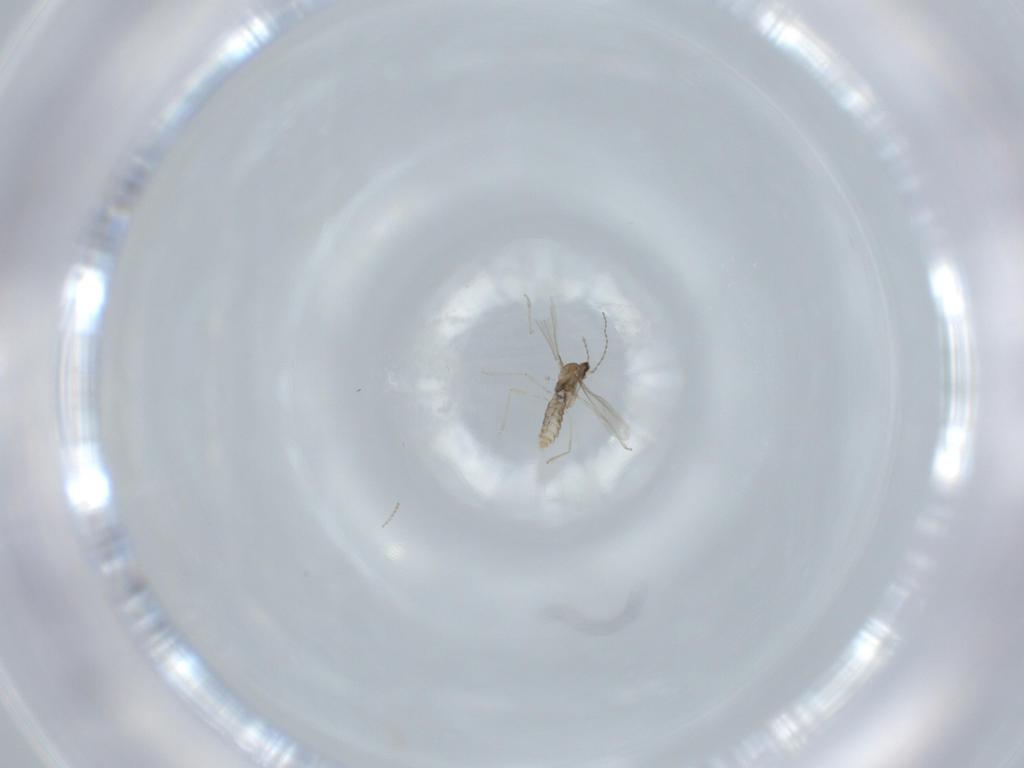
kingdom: Animalia
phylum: Arthropoda
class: Insecta
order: Diptera
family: Cecidomyiidae
